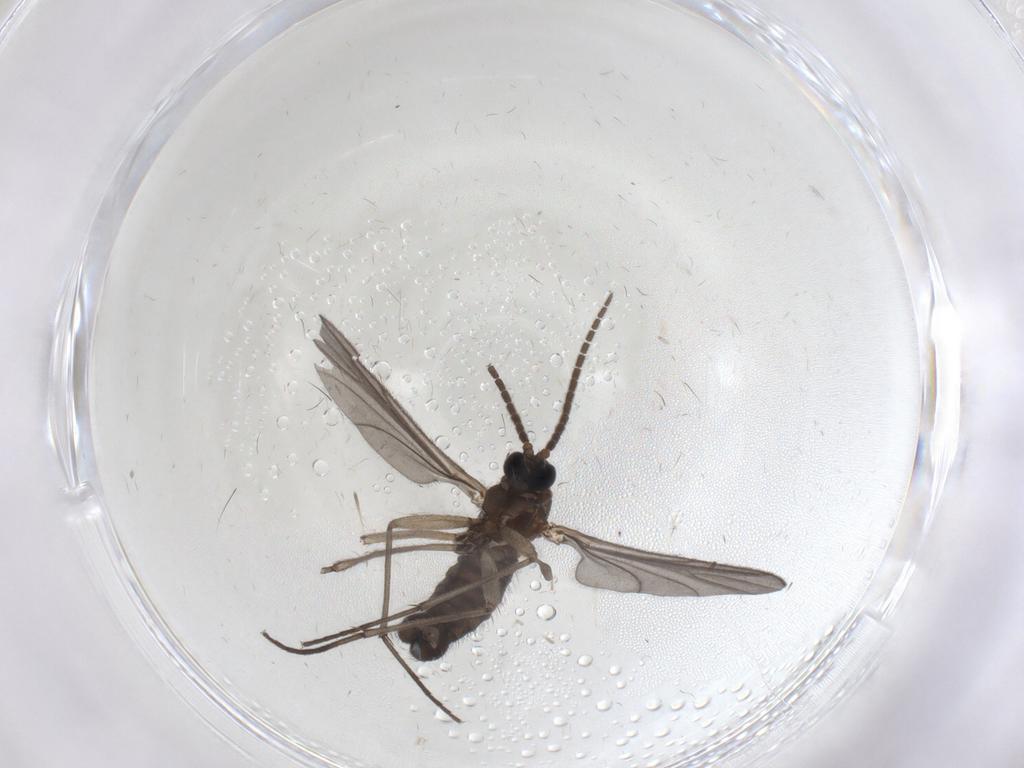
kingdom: Animalia
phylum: Arthropoda
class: Insecta
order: Diptera
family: Sciaridae
